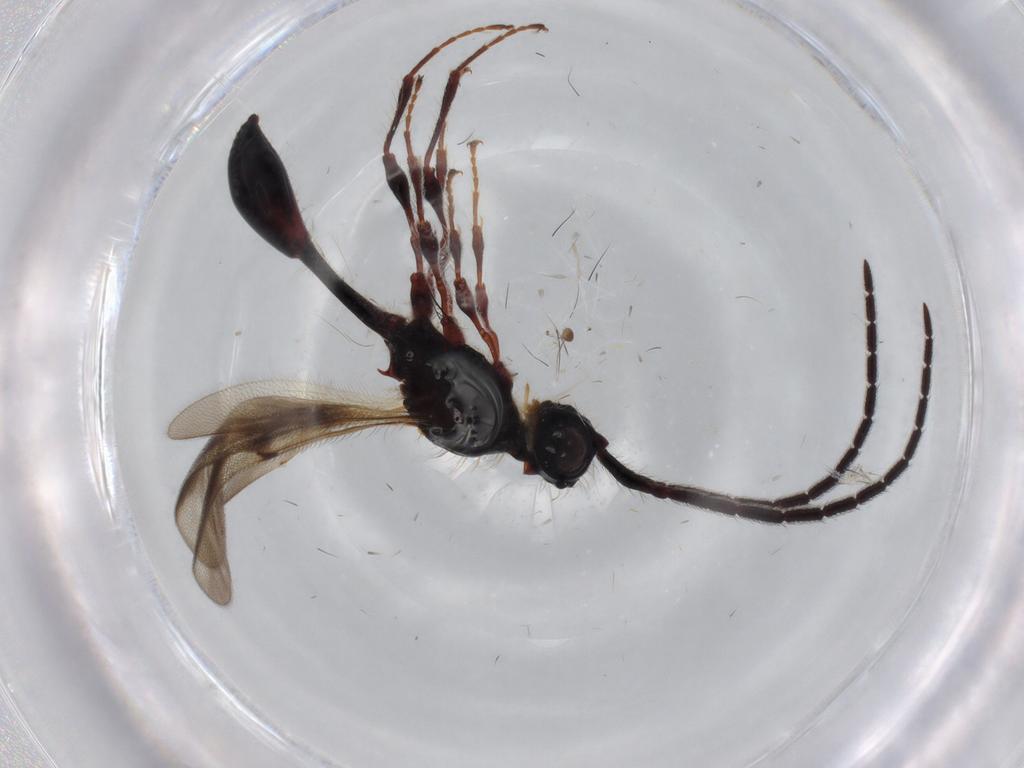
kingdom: Animalia
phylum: Arthropoda
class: Insecta
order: Hymenoptera
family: Diapriidae
